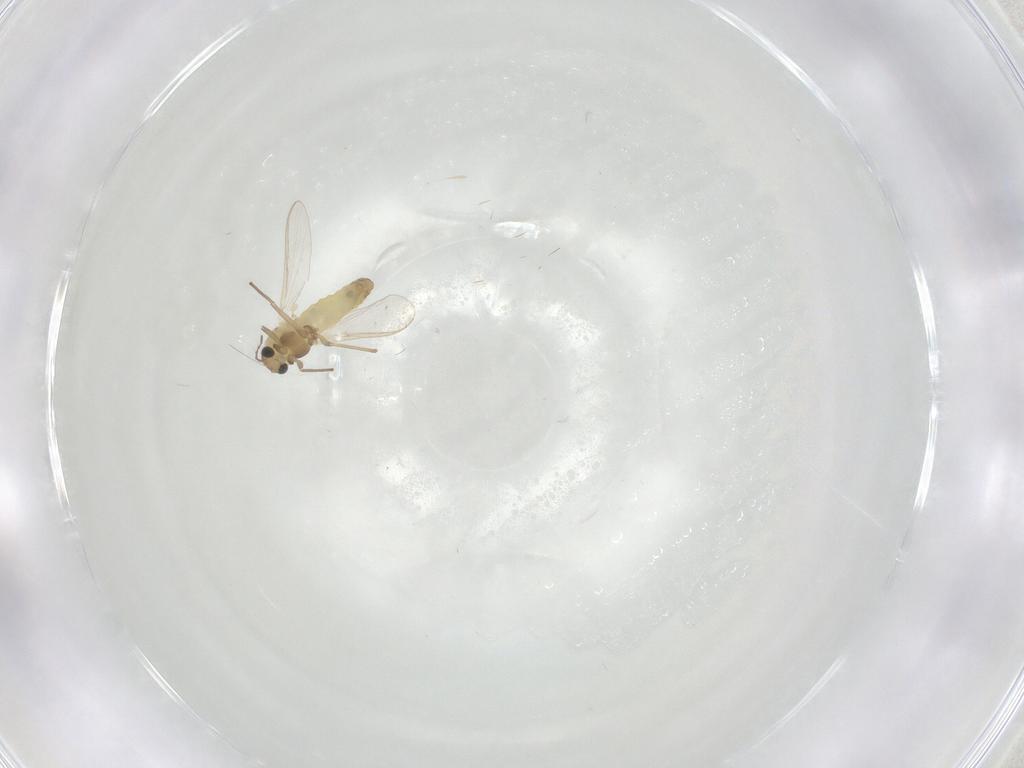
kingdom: Animalia
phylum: Arthropoda
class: Insecta
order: Diptera
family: Chironomidae
